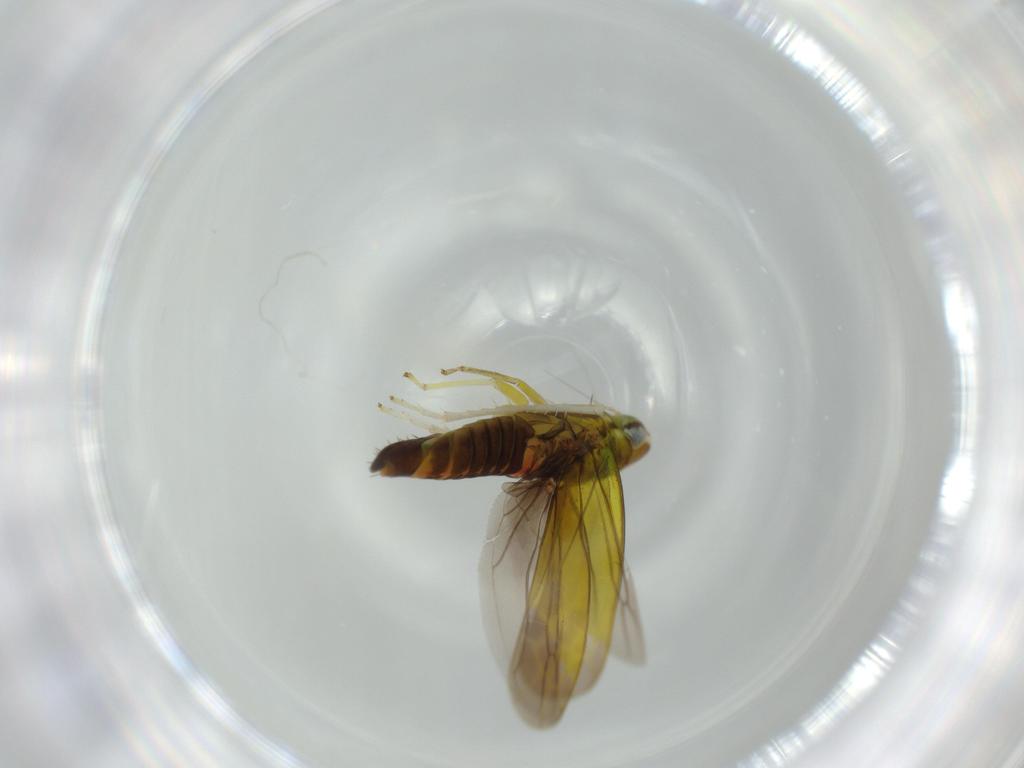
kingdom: Animalia
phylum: Arthropoda
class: Insecta
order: Hemiptera
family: Cicadellidae
